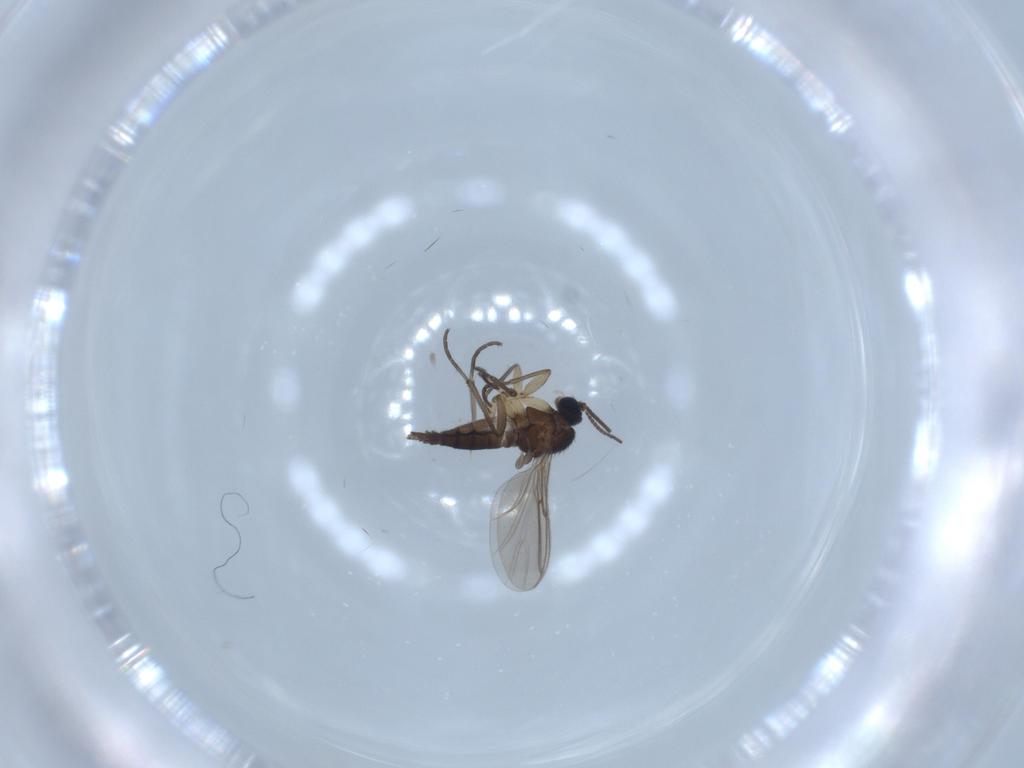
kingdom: Animalia
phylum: Arthropoda
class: Insecta
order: Diptera
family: Sciaridae
